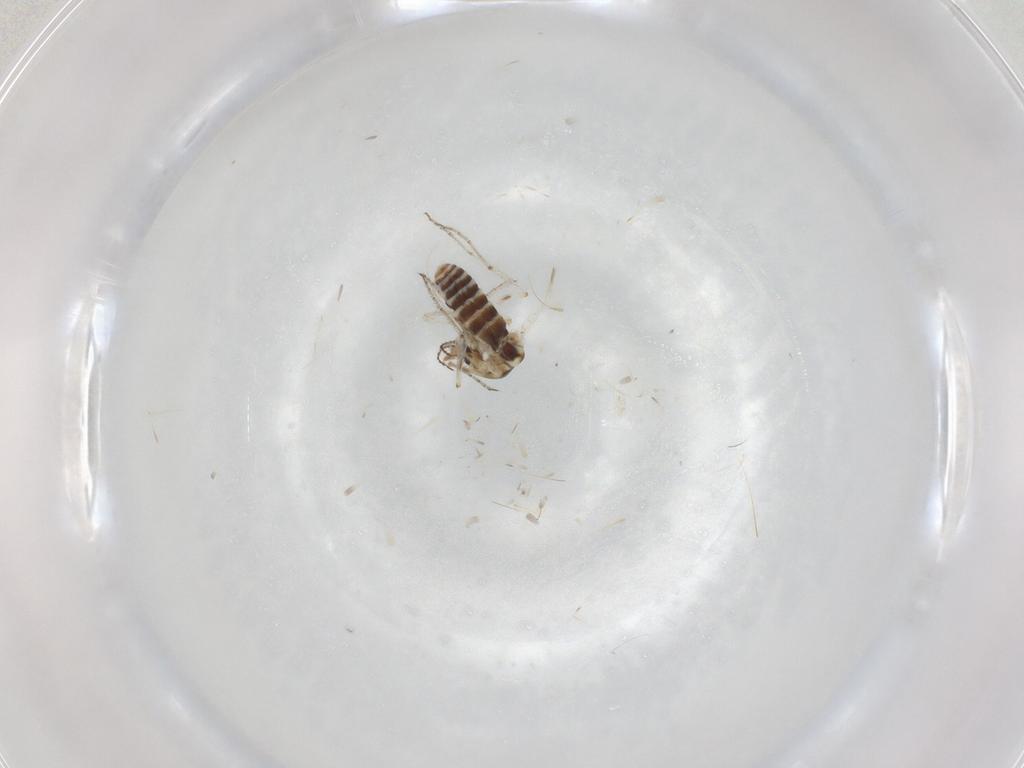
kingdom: Animalia
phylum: Arthropoda
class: Insecta
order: Diptera
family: Ceratopogonidae
